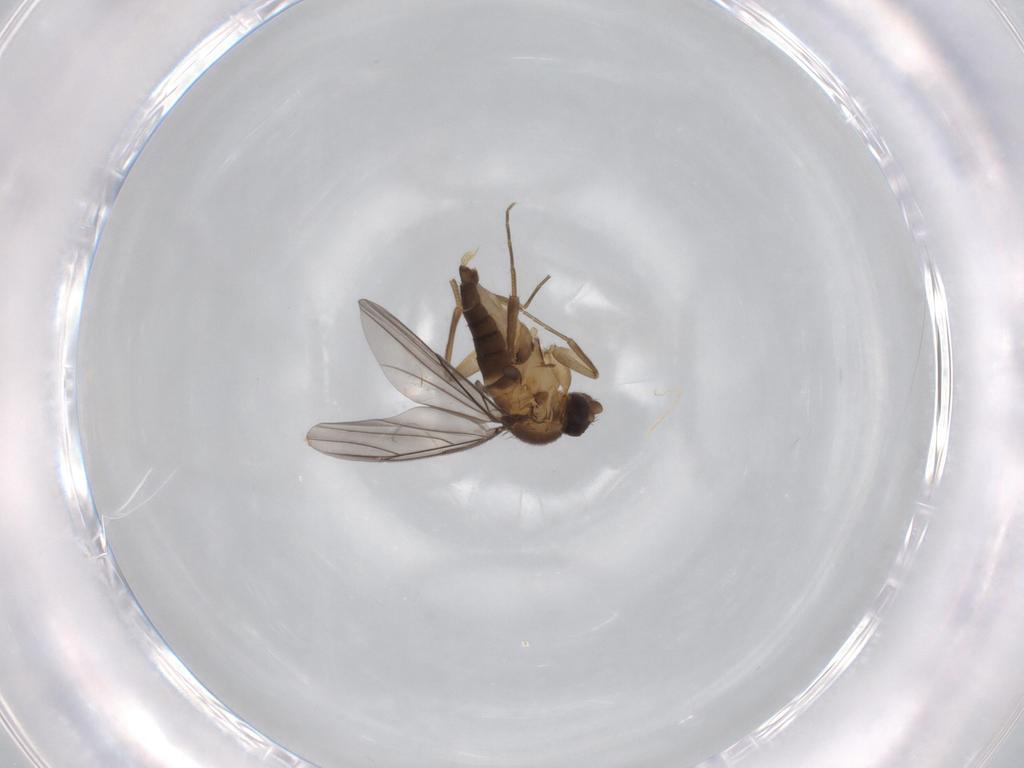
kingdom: Animalia
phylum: Arthropoda
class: Insecta
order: Diptera
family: Phoridae
